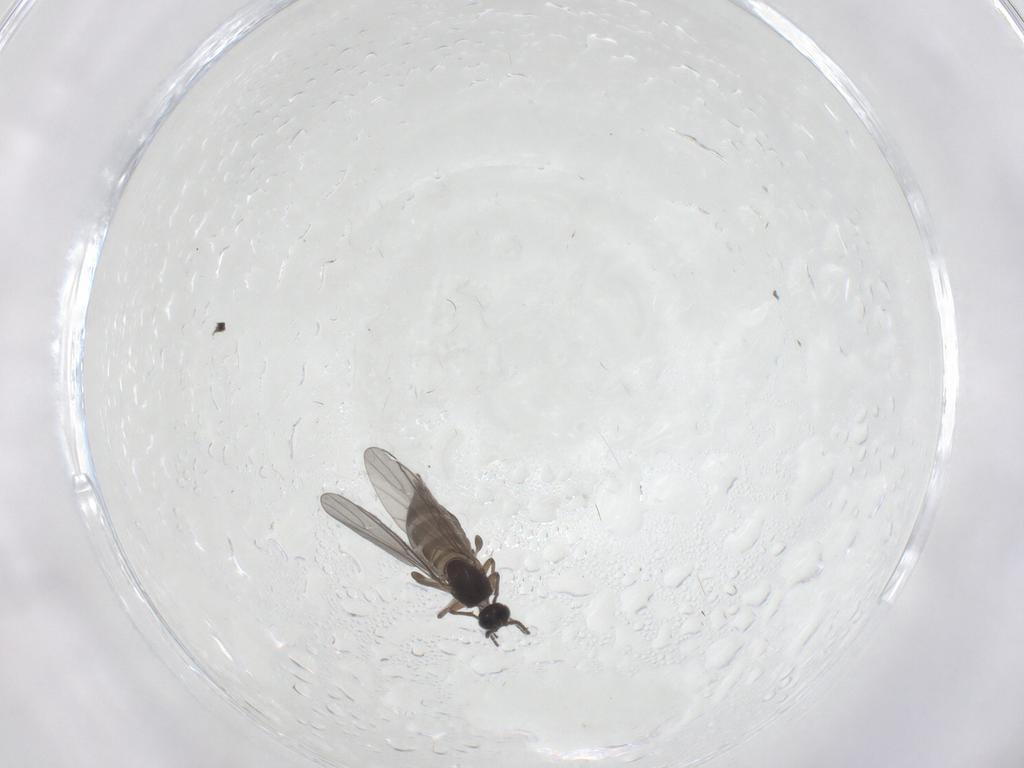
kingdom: Animalia
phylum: Arthropoda
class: Insecta
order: Diptera
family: Sciaridae
